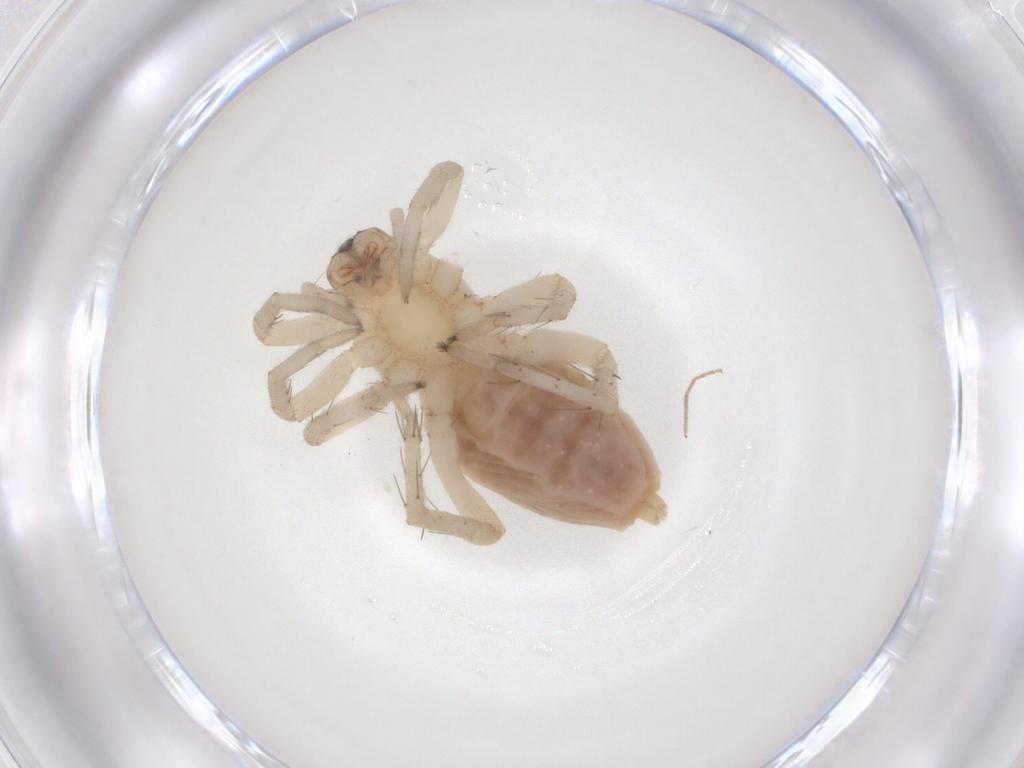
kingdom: Animalia
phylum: Arthropoda
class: Arachnida
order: Araneae
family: Clubionidae
